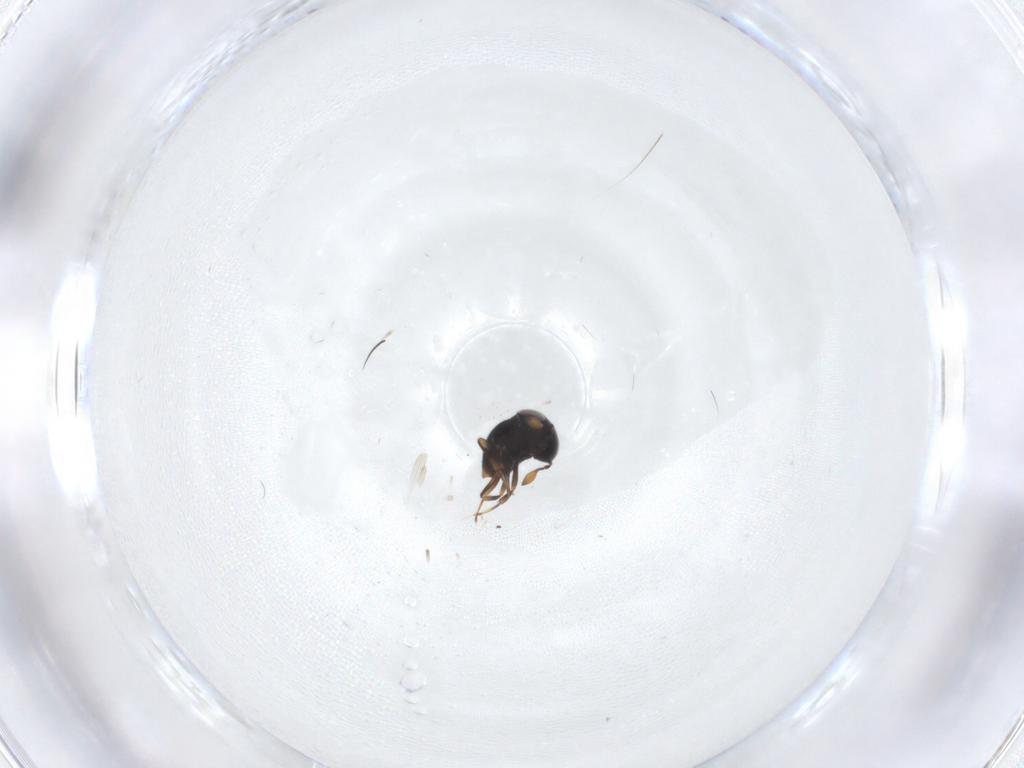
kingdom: Animalia
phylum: Arthropoda
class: Insecta
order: Hymenoptera
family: Scelionidae
